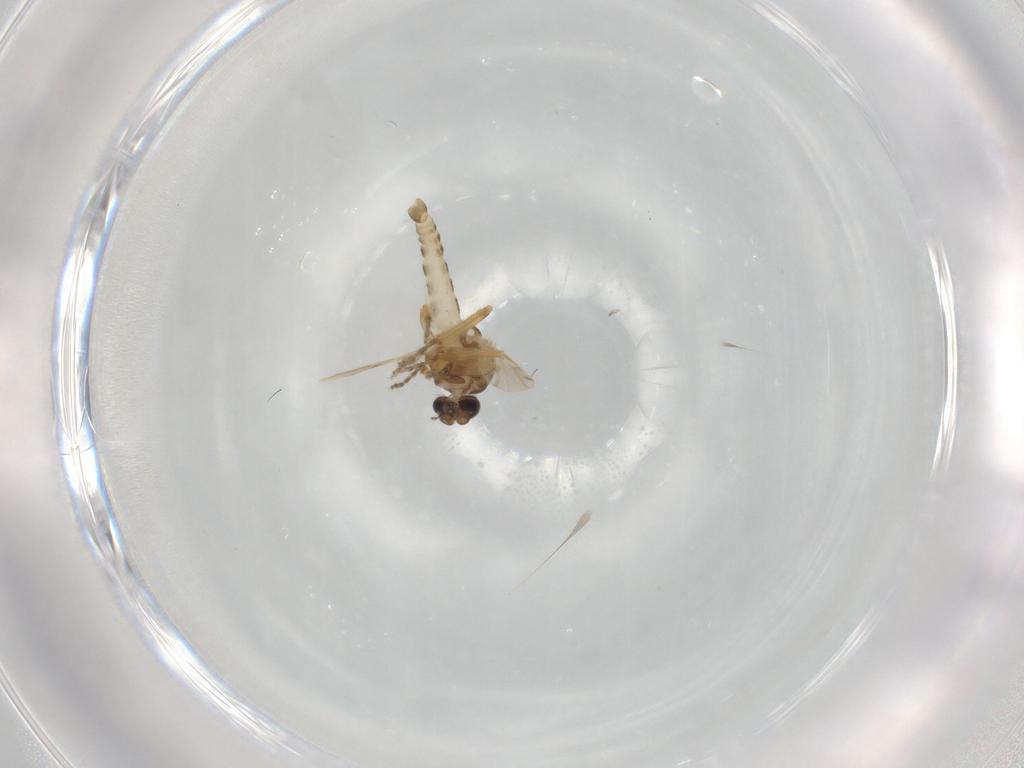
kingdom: Animalia
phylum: Arthropoda
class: Insecta
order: Diptera
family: Ceratopogonidae
